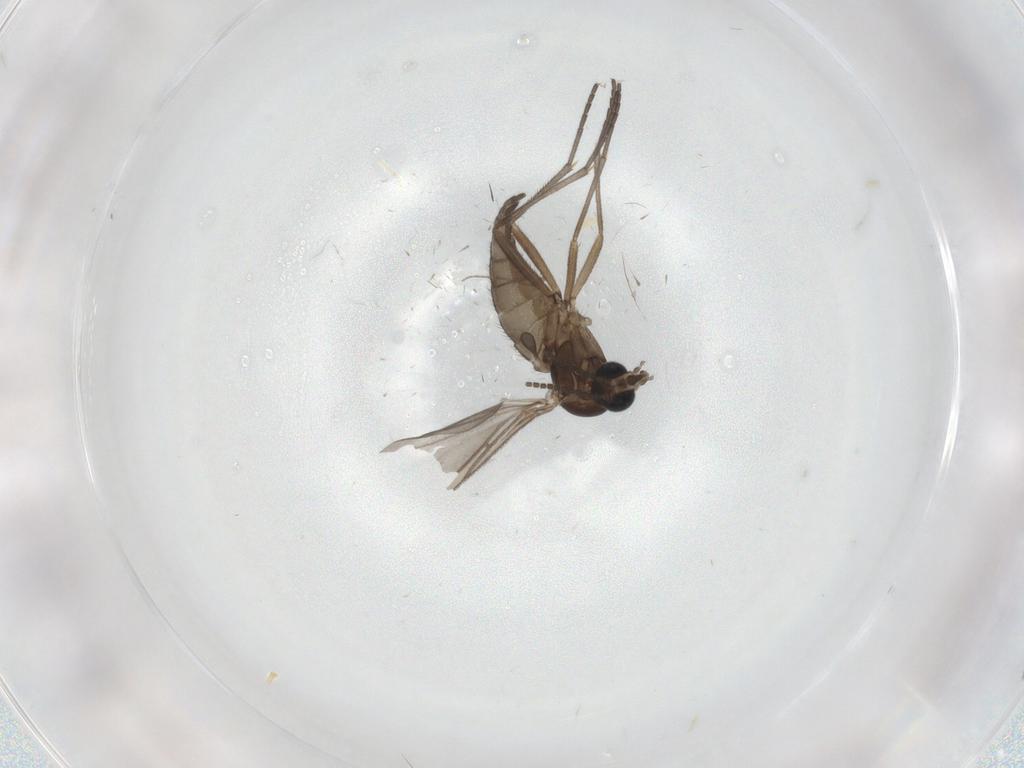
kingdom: Animalia
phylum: Arthropoda
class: Insecta
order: Diptera
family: Sciaridae
